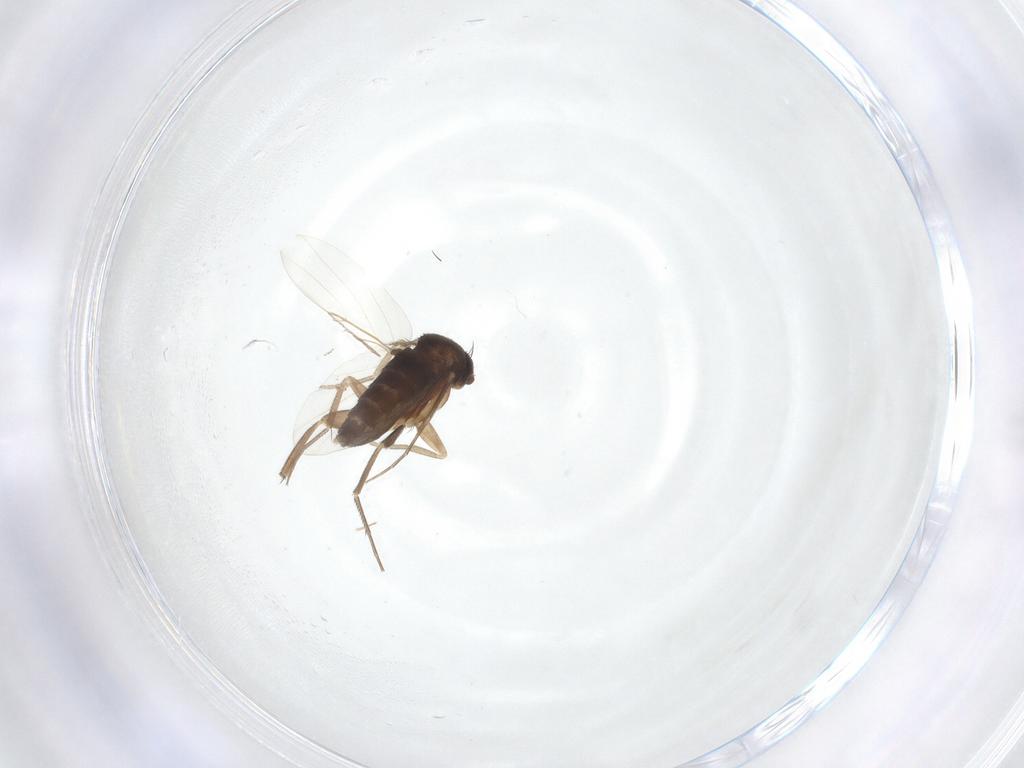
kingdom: Animalia
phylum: Arthropoda
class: Insecta
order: Diptera
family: Phoridae
